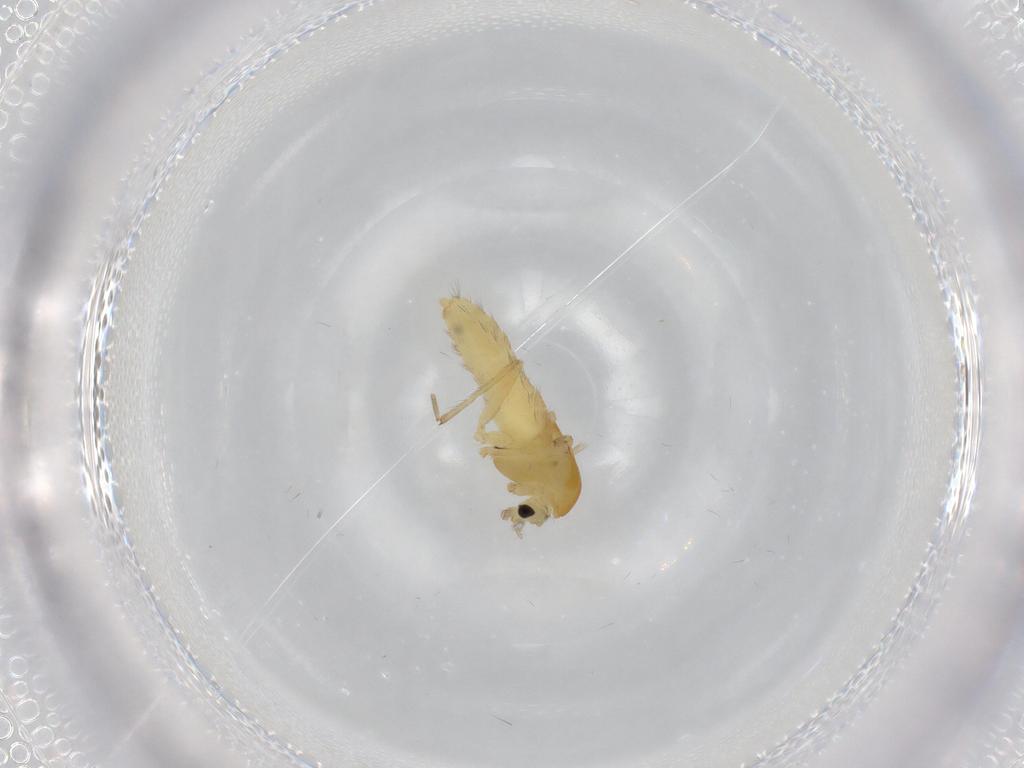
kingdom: Animalia
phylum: Arthropoda
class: Insecta
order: Diptera
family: Chironomidae
